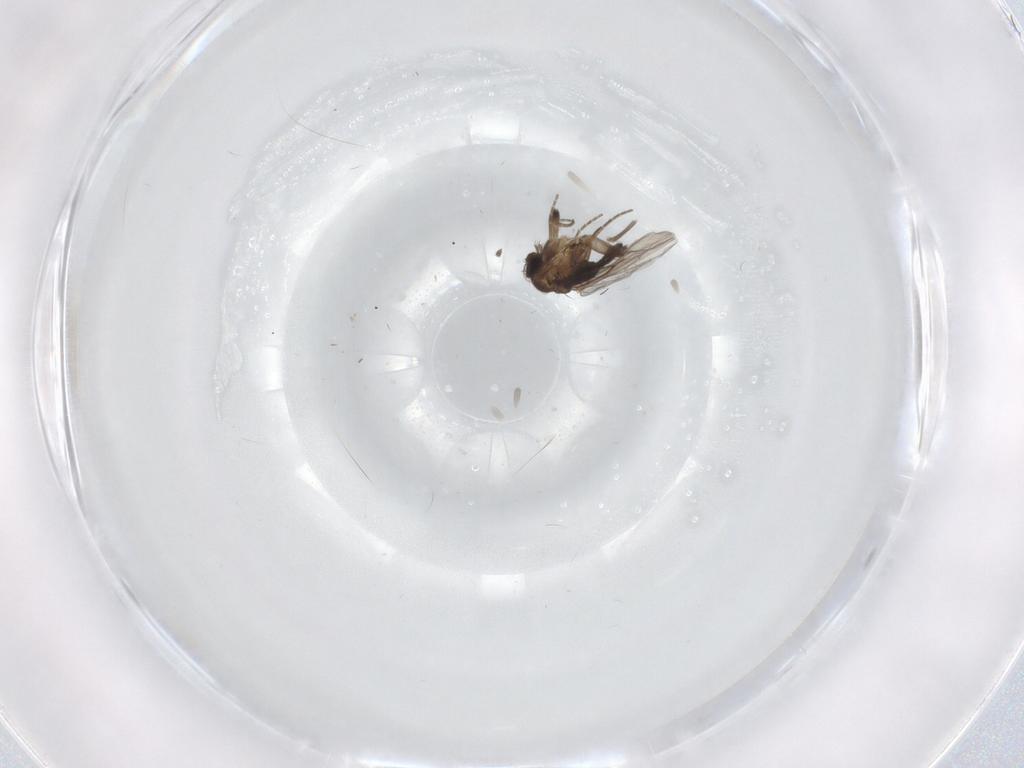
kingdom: Animalia
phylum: Arthropoda
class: Insecta
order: Diptera
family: Sciaridae
